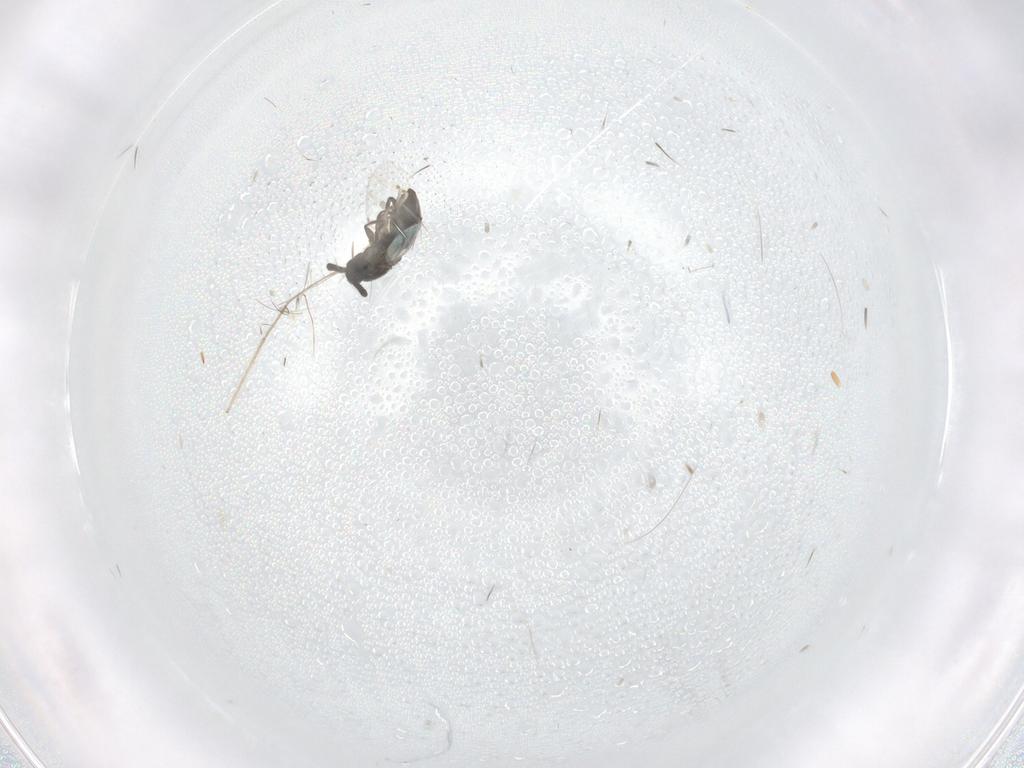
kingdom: Animalia
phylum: Arthropoda
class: Insecta
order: Diptera
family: Scatopsidae
